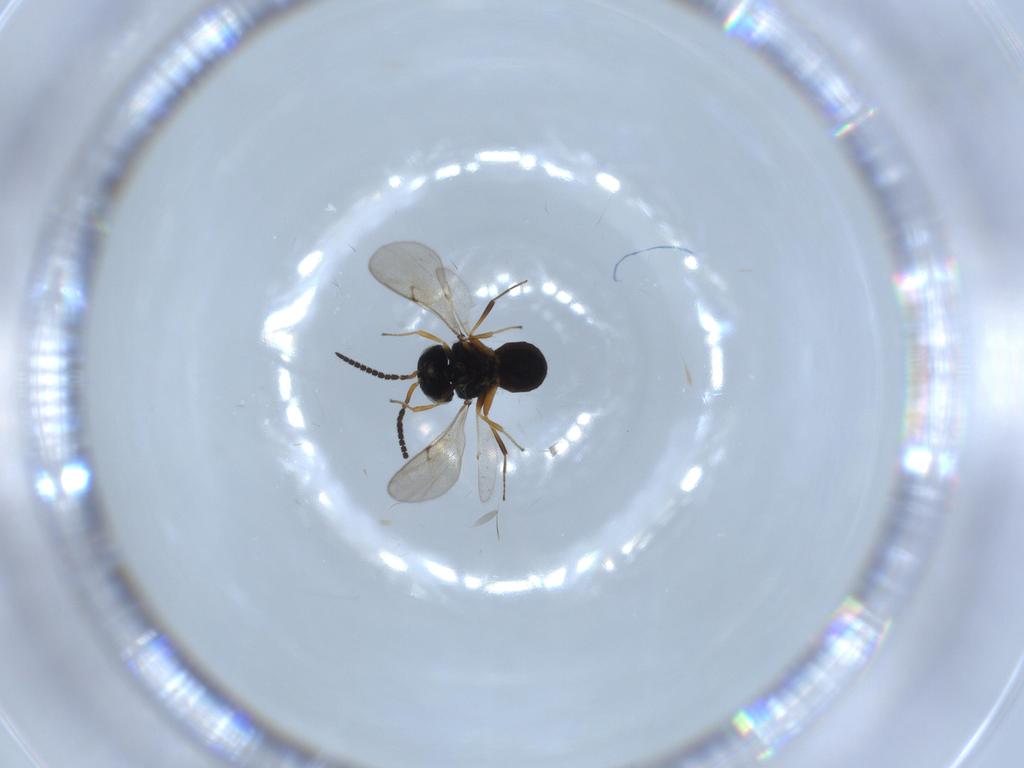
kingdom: Animalia
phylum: Arthropoda
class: Insecta
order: Hymenoptera
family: Scelionidae
